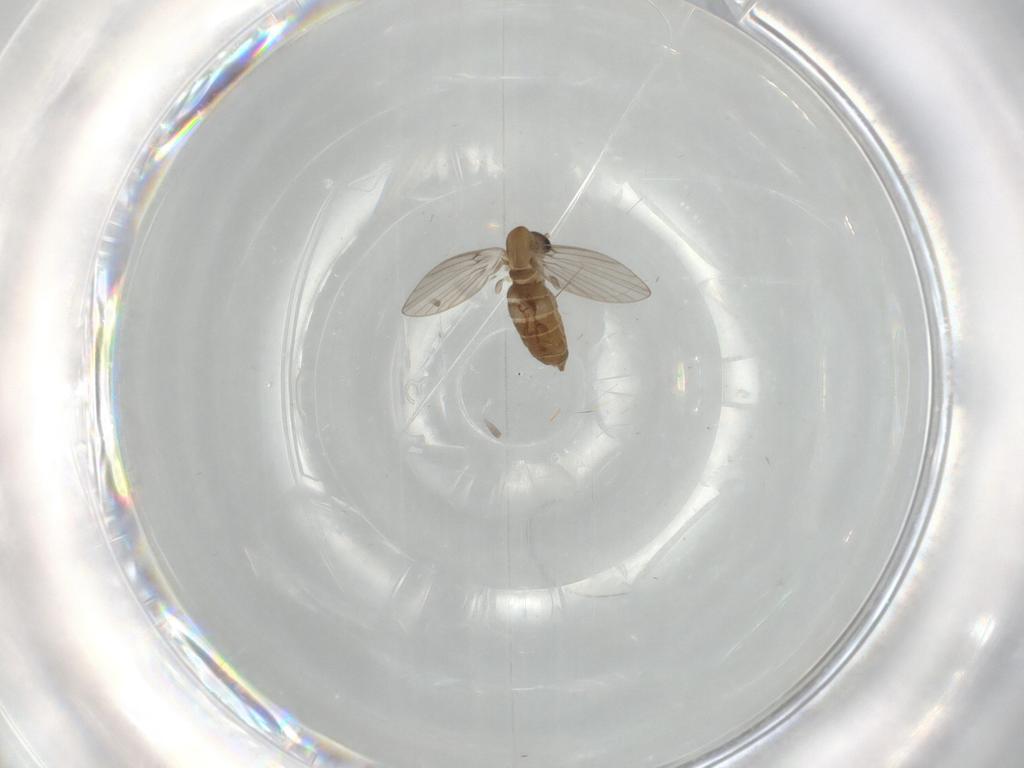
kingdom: Animalia
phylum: Arthropoda
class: Insecta
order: Diptera
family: Psychodidae
